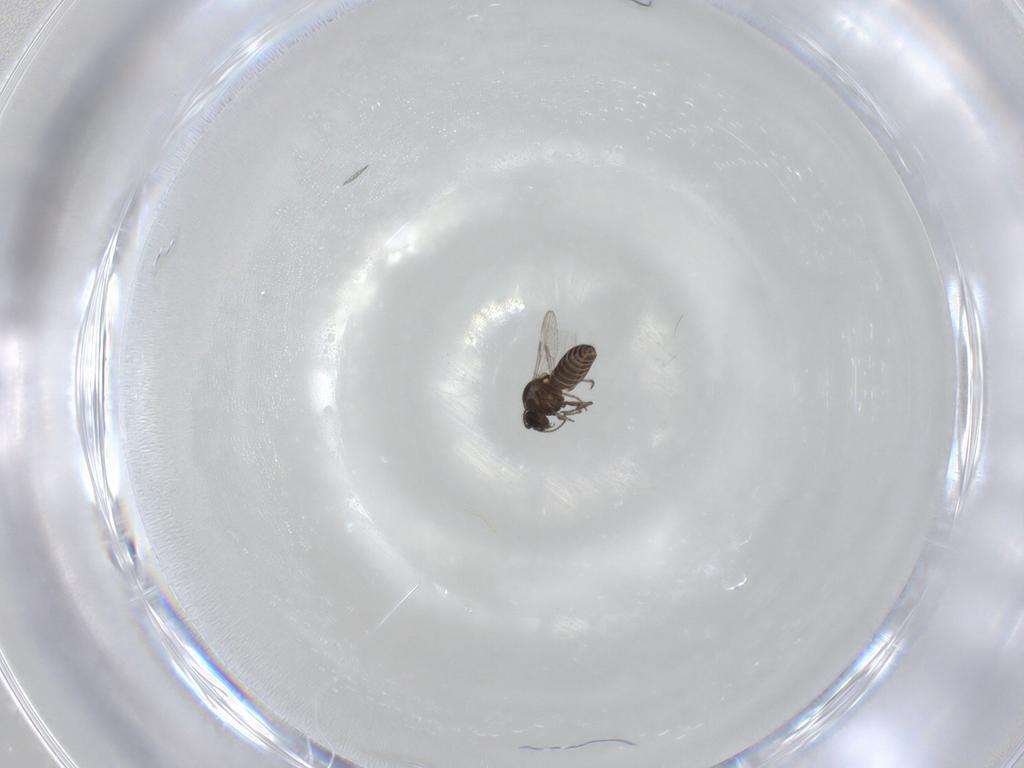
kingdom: Animalia
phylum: Arthropoda
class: Insecta
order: Diptera
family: Ceratopogonidae
